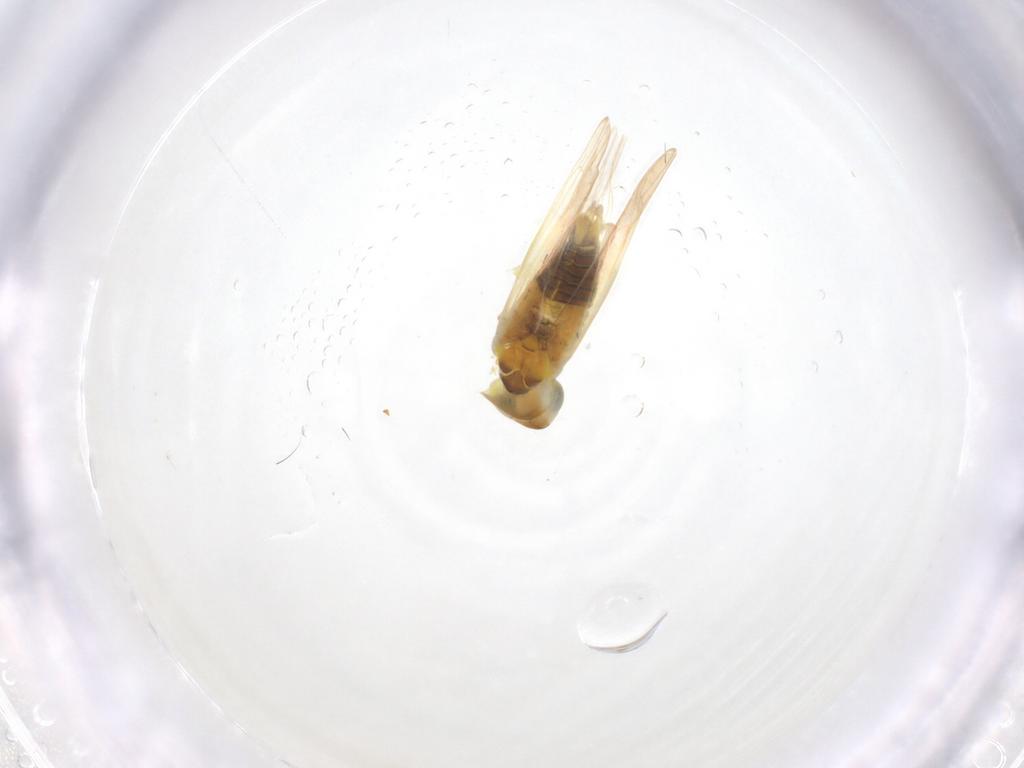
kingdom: Animalia
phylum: Arthropoda
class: Insecta
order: Hemiptera
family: Cicadellidae
